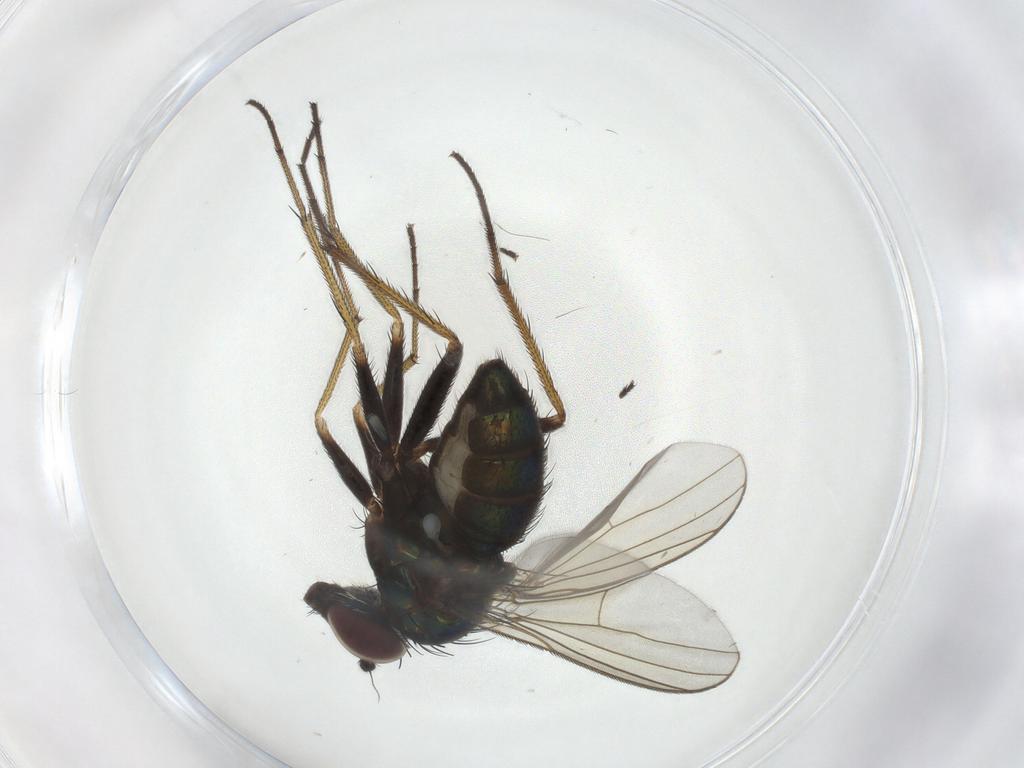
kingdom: Animalia
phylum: Arthropoda
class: Insecta
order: Diptera
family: Dolichopodidae
